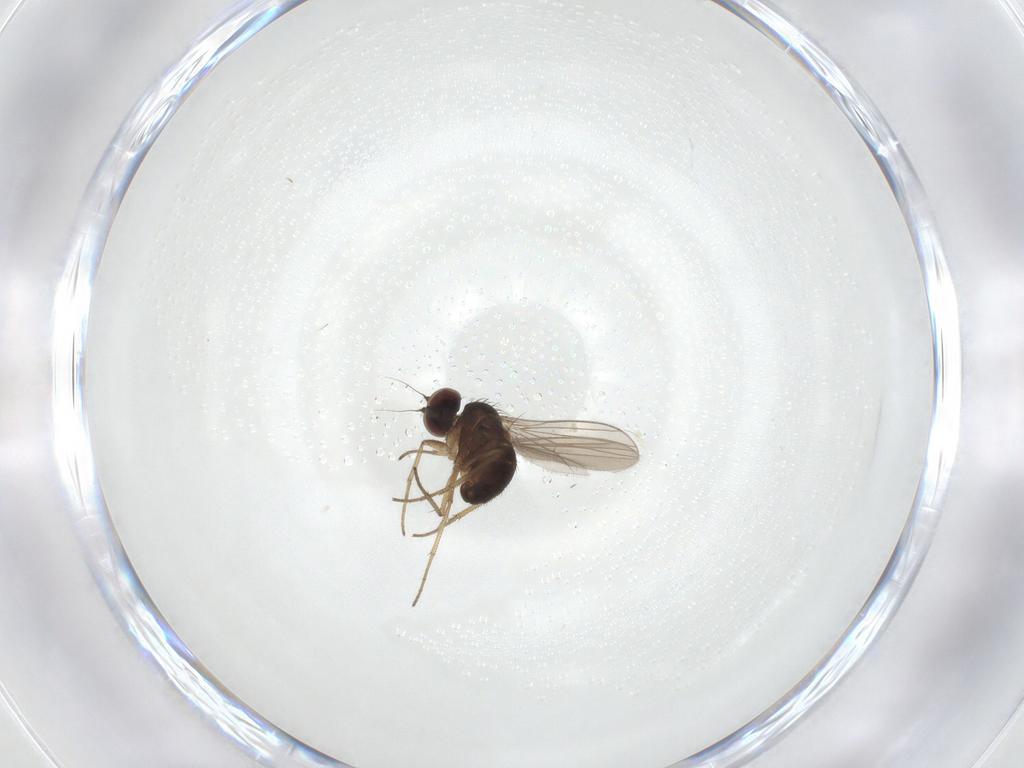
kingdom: Animalia
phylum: Arthropoda
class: Insecta
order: Diptera
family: Dolichopodidae
